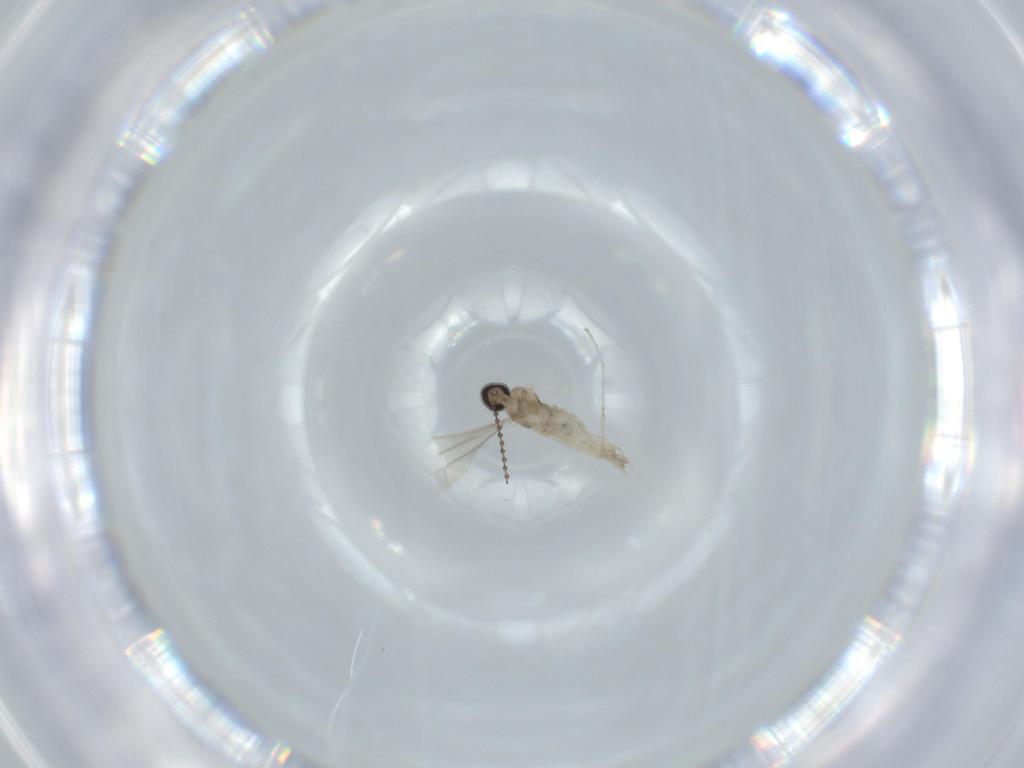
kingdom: Animalia
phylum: Arthropoda
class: Insecta
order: Diptera
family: Cecidomyiidae
